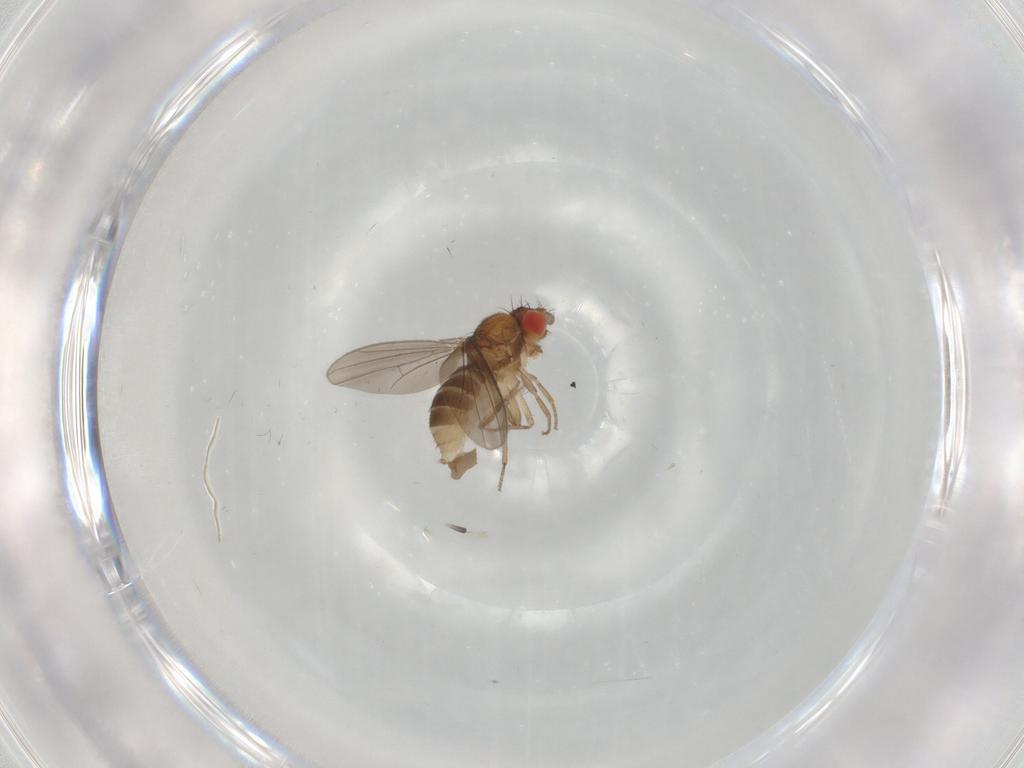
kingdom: Animalia
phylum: Arthropoda
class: Insecta
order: Diptera
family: Drosophilidae
